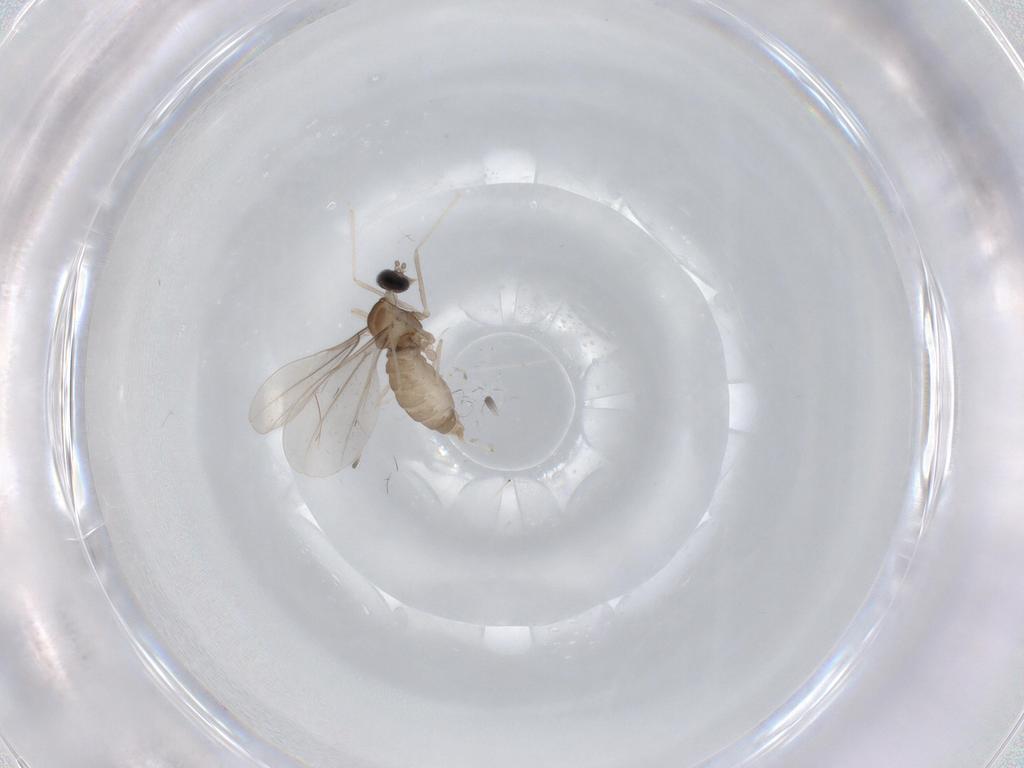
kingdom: Animalia
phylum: Arthropoda
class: Insecta
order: Diptera
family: Cecidomyiidae
